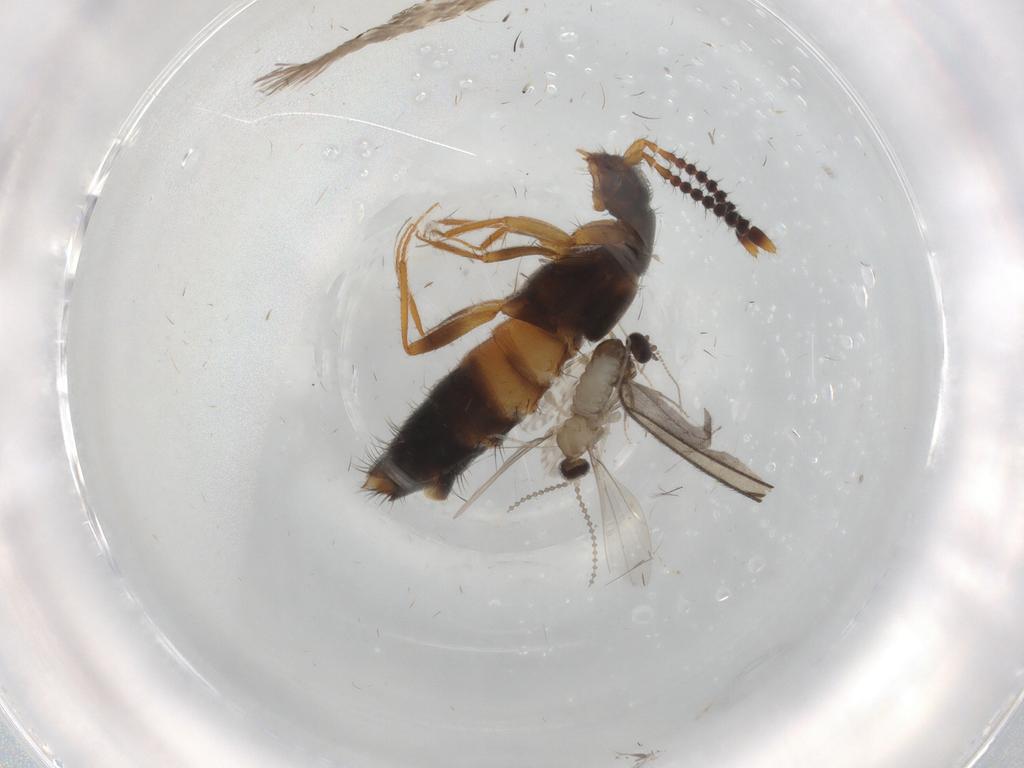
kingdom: Animalia
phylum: Arthropoda
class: Insecta
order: Coleoptera
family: Staphylinidae
